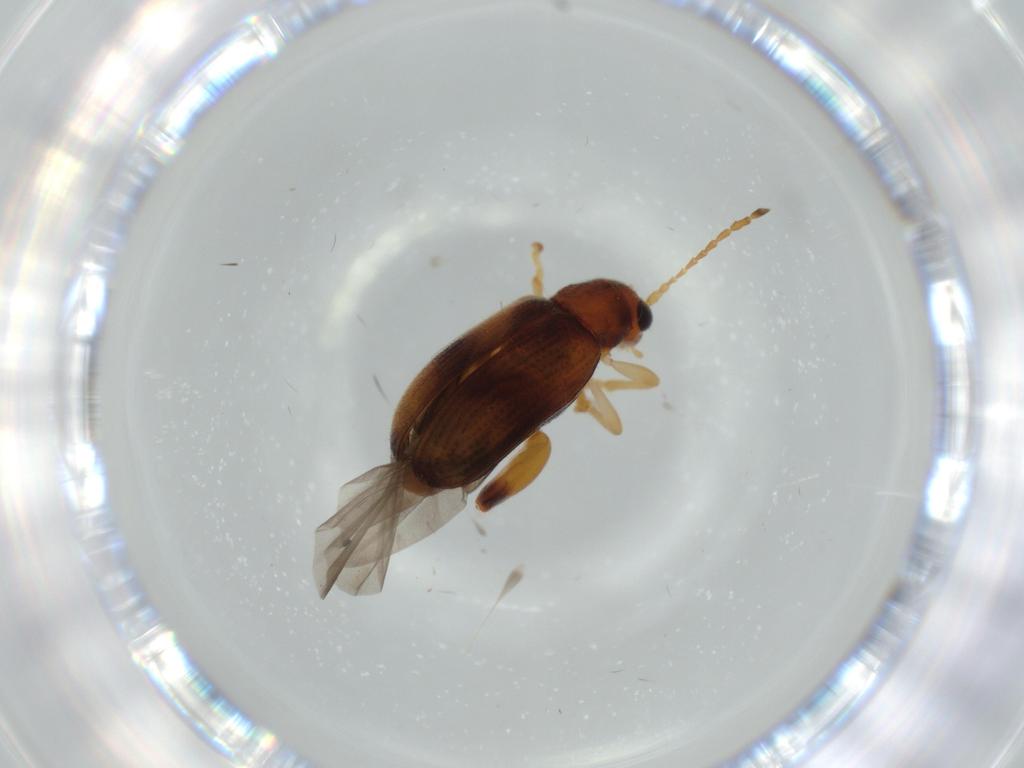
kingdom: Animalia
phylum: Arthropoda
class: Insecta
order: Coleoptera
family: Chrysomelidae
